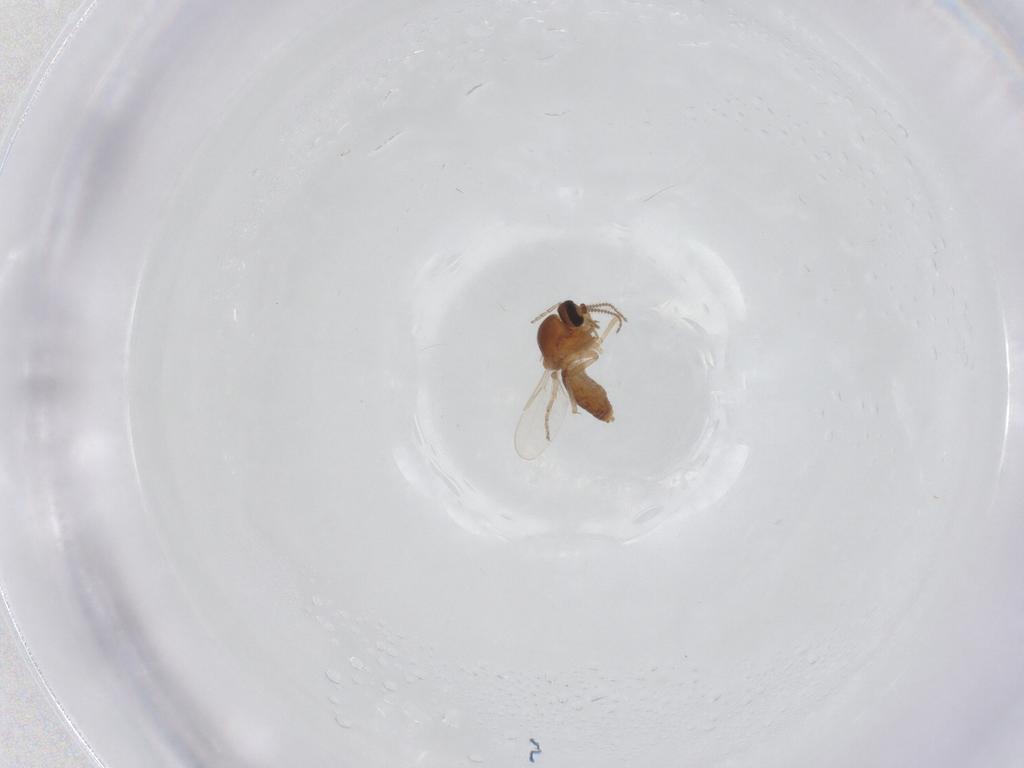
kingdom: Animalia
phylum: Arthropoda
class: Insecta
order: Diptera
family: Ceratopogonidae
